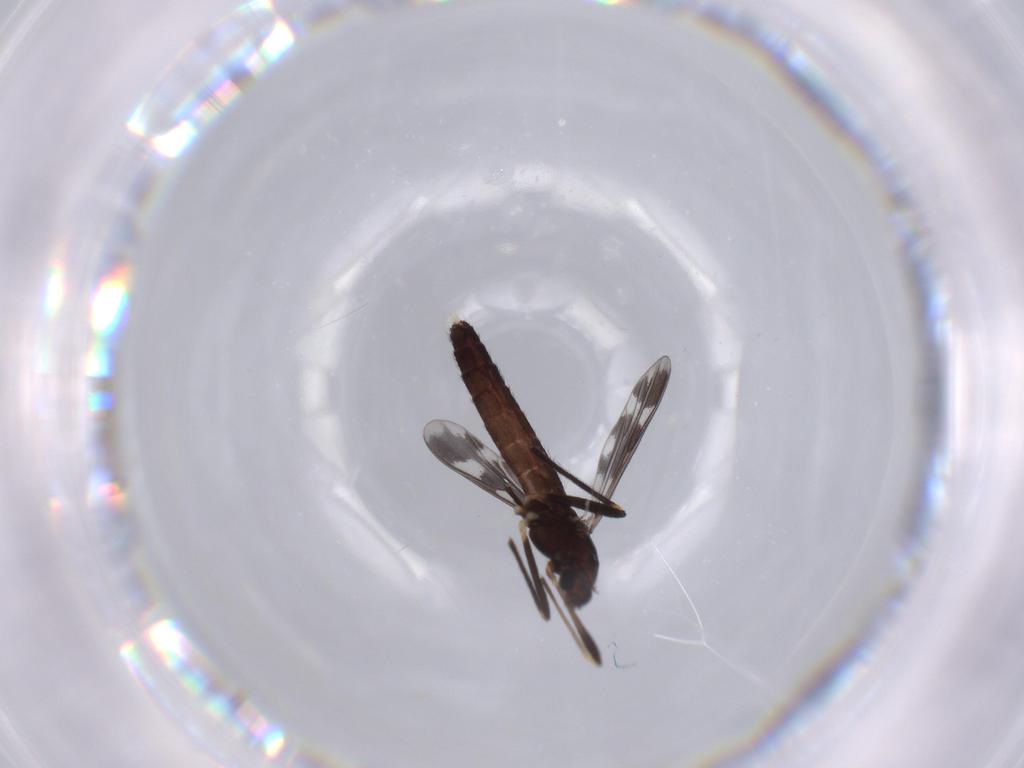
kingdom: Animalia
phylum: Arthropoda
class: Insecta
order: Diptera
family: Chironomidae
